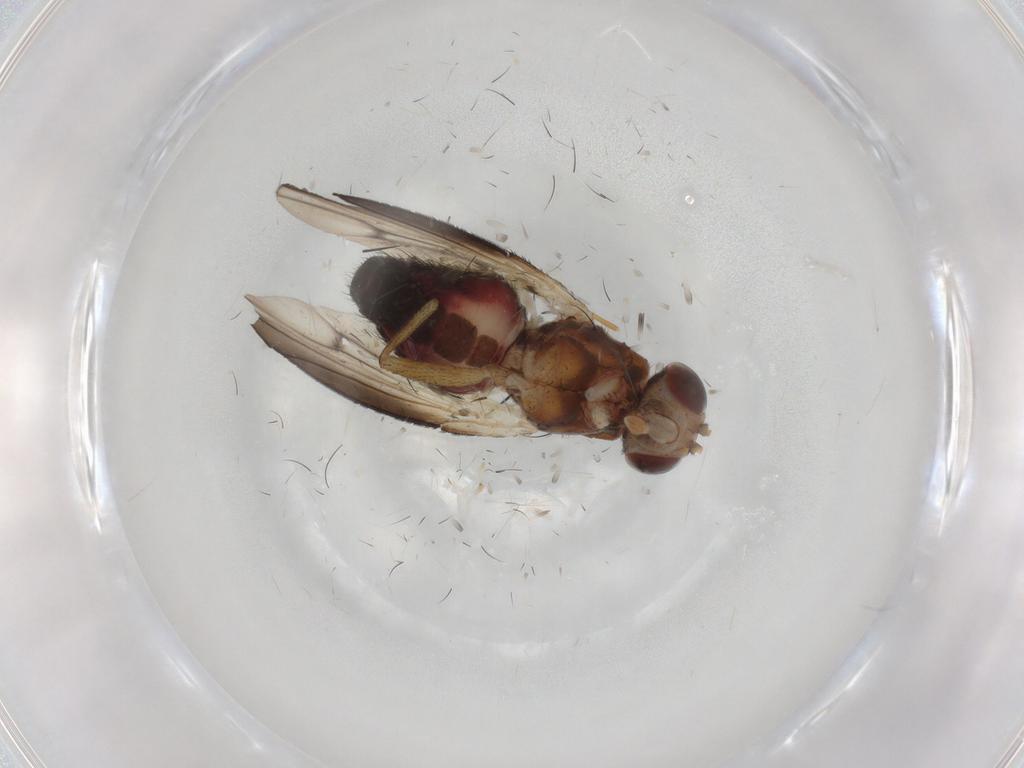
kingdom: Animalia
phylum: Arthropoda
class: Insecta
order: Diptera
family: Heleomyzidae
